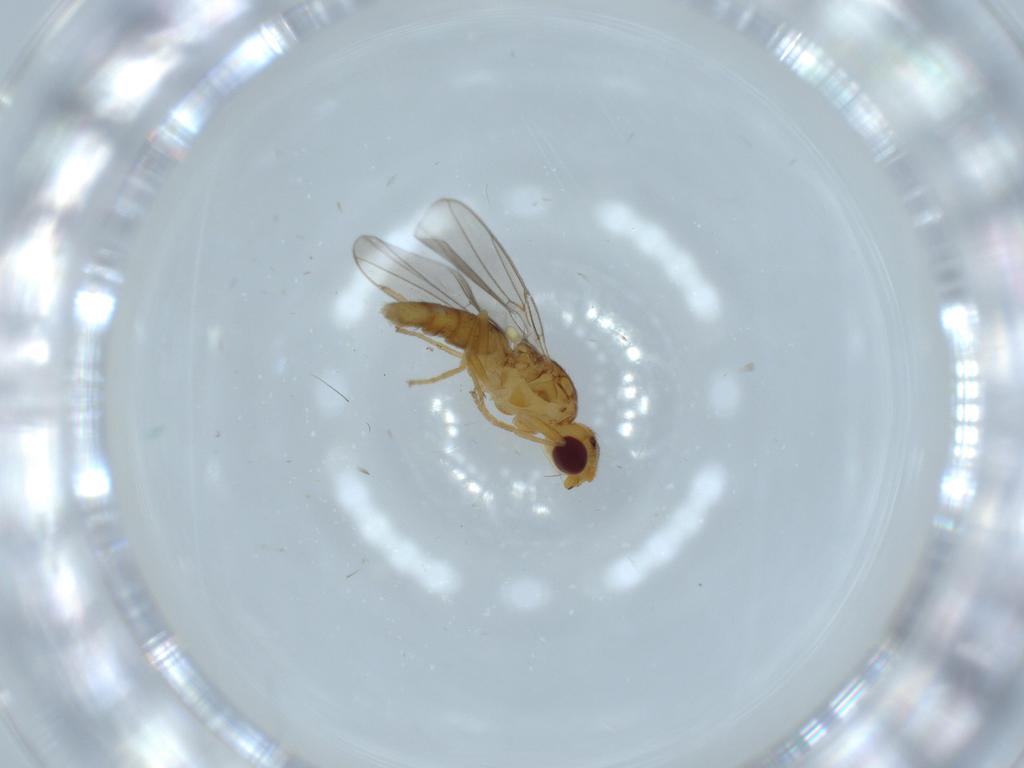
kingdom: Animalia
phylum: Arthropoda
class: Insecta
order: Diptera
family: Chloropidae
